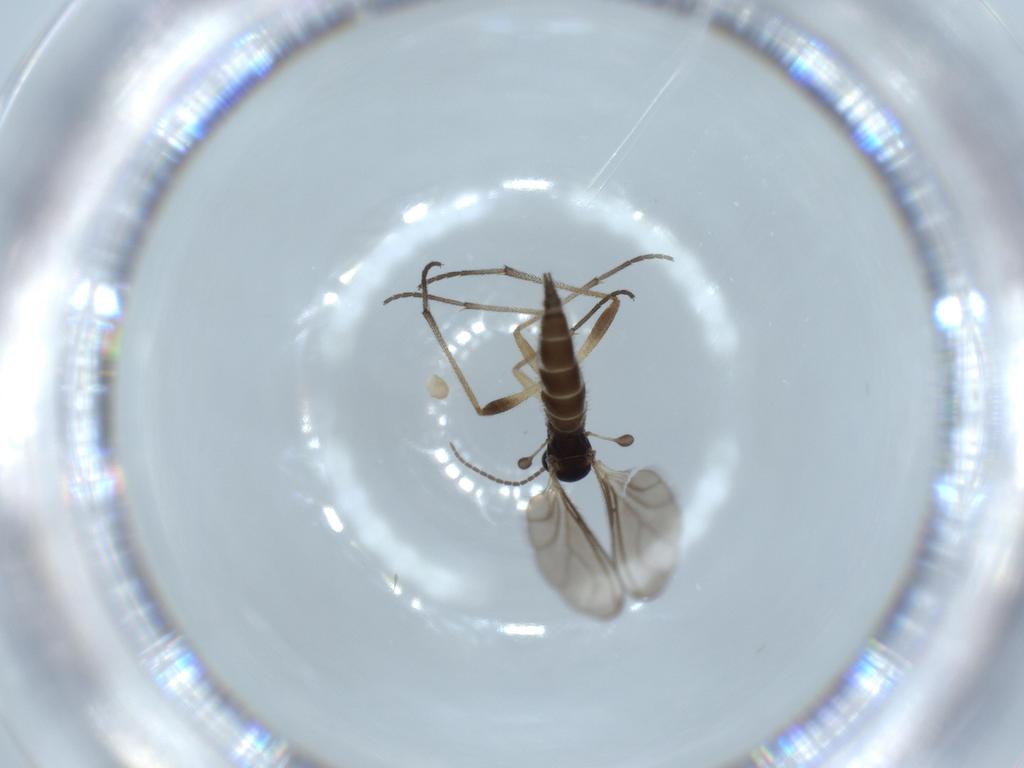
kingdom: Animalia
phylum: Arthropoda
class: Insecta
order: Diptera
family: Sciaridae
